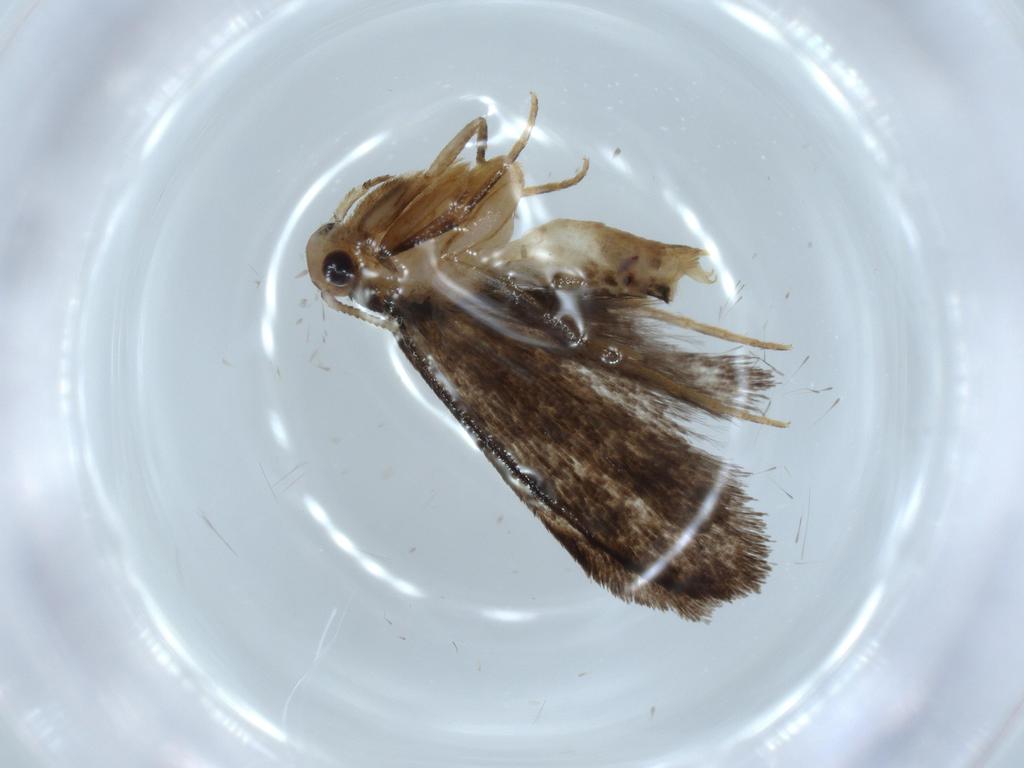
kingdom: Animalia
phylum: Arthropoda
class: Insecta
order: Lepidoptera
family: Tineidae
